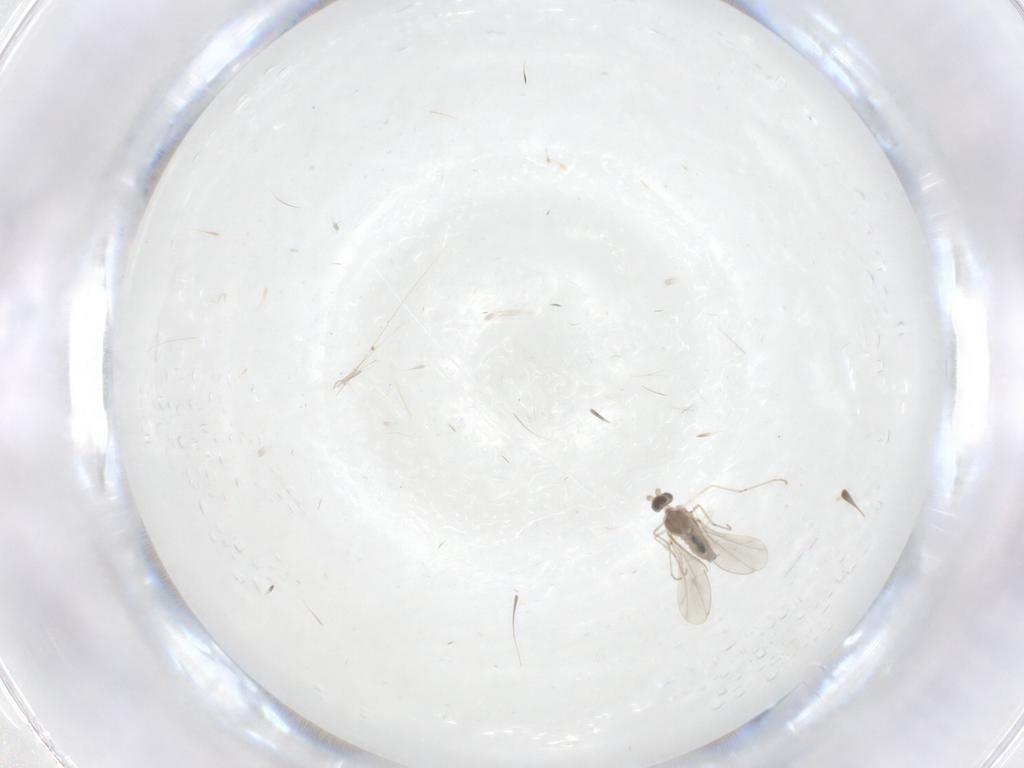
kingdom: Animalia
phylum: Arthropoda
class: Insecta
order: Diptera
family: Cecidomyiidae
